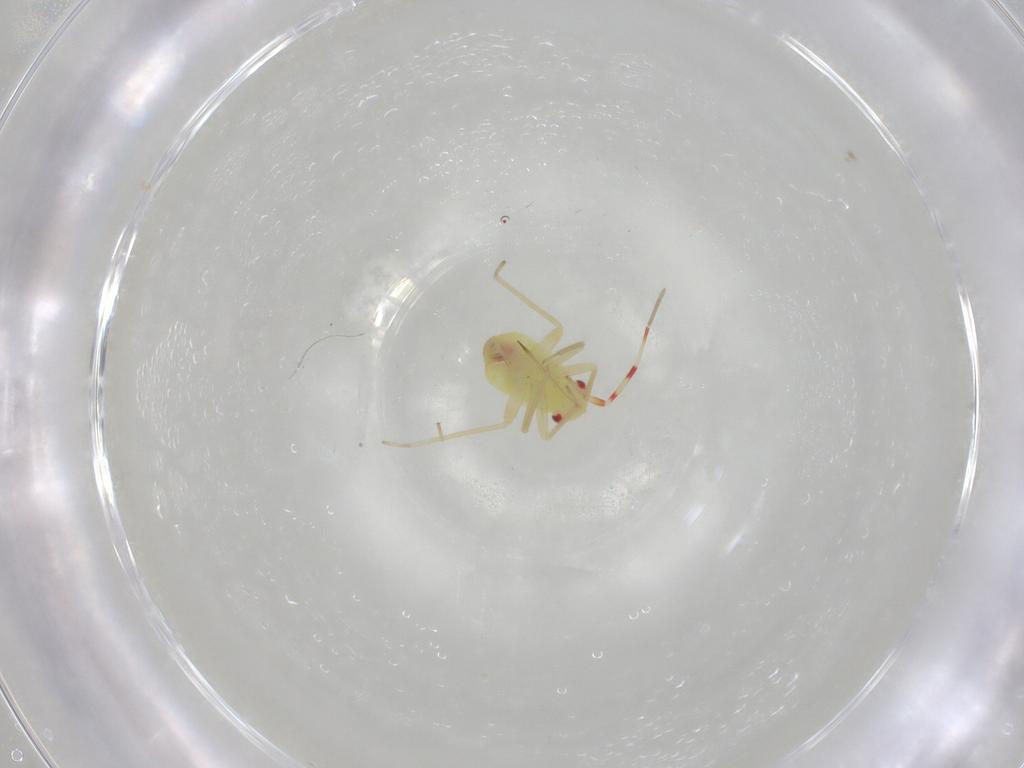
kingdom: Animalia
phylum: Arthropoda
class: Insecta
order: Hemiptera
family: Miridae
